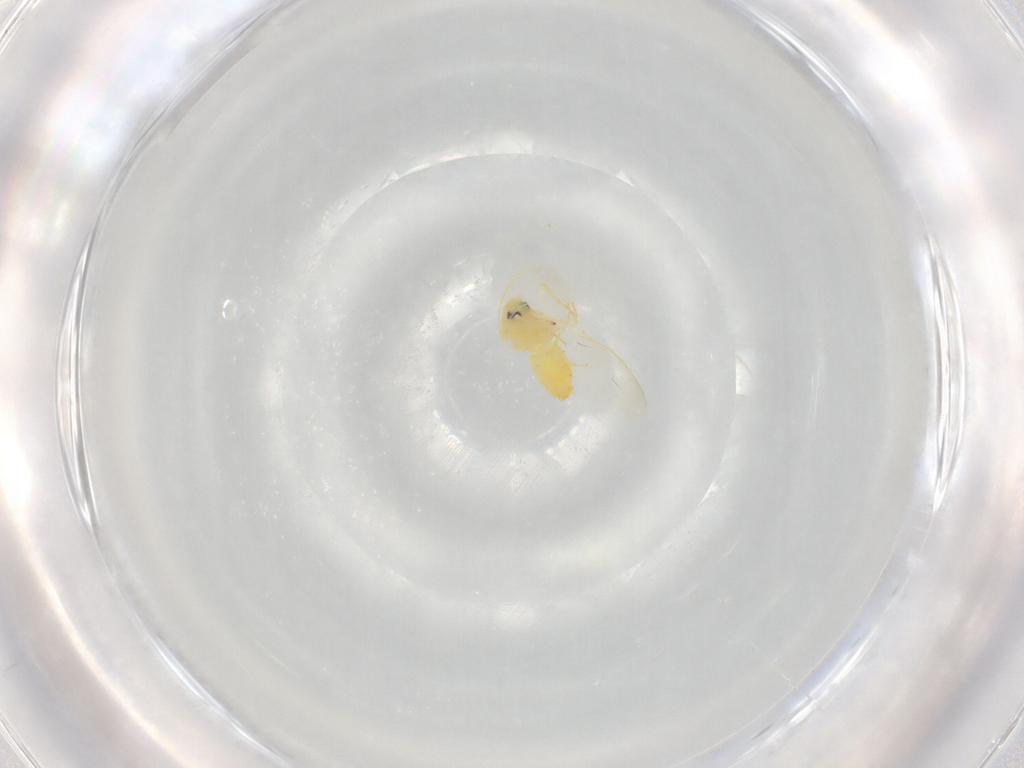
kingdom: Animalia
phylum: Arthropoda
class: Insecta
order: Hemiptera
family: Aleyrodidae
